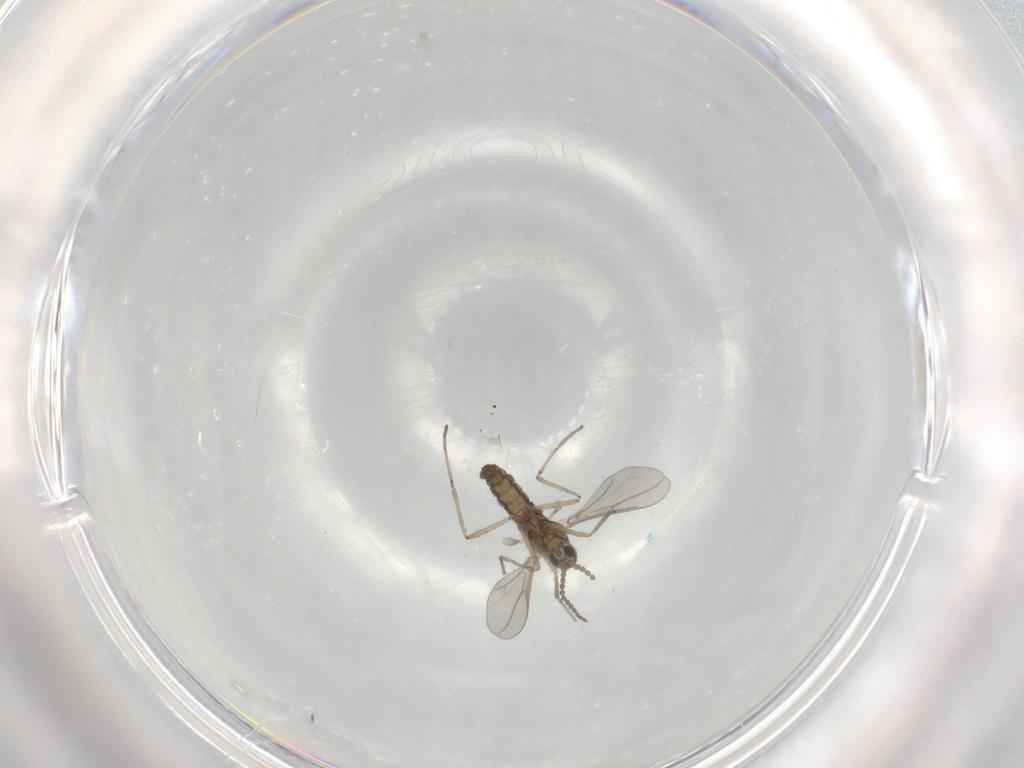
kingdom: Animalia
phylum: Arthropoda
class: Insecta
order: Diptera
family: Cecidomyiidae
